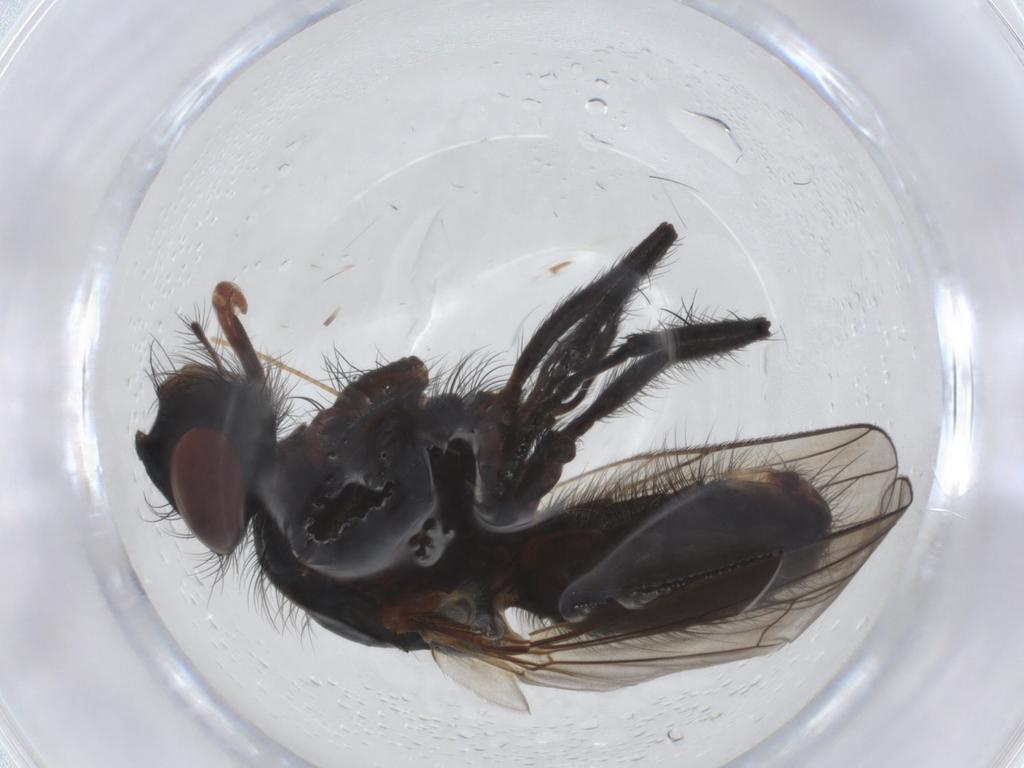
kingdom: Animalia
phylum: Arthropoda
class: Insecta
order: Diptera
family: Anthomyiidae
